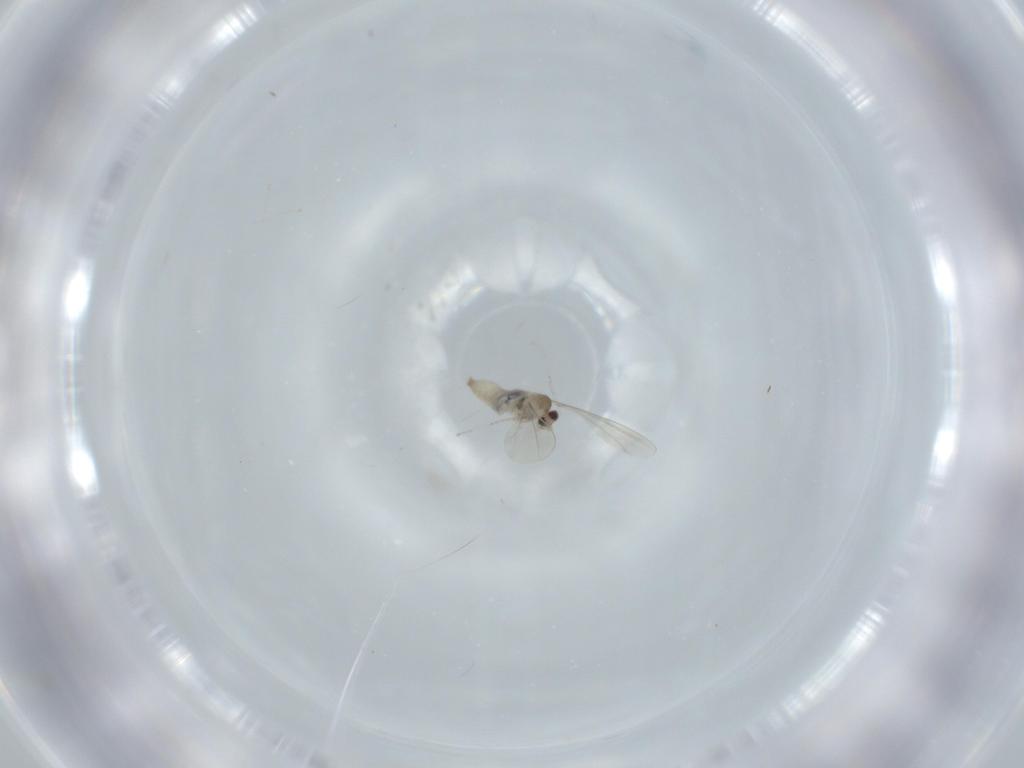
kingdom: Animalia
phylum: Arthropoda
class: Insecta
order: Diptera
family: Cecidomyiidae
